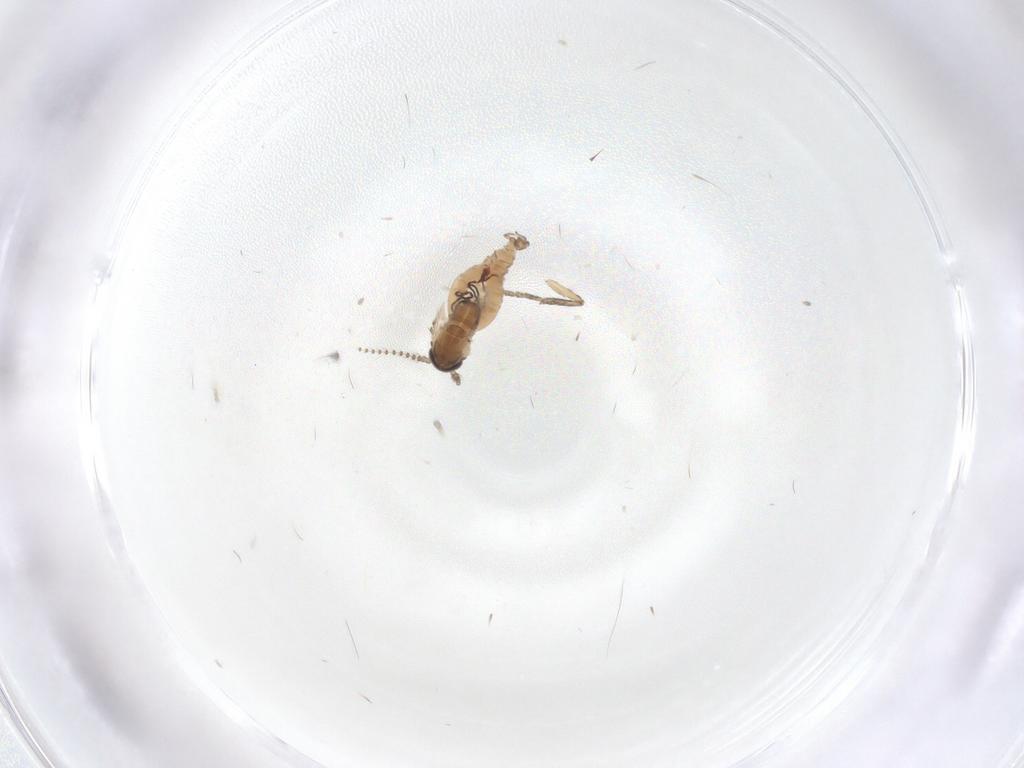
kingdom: Animalia
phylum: Arthropoda
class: Insecta
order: Diptera
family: Psychodidae
